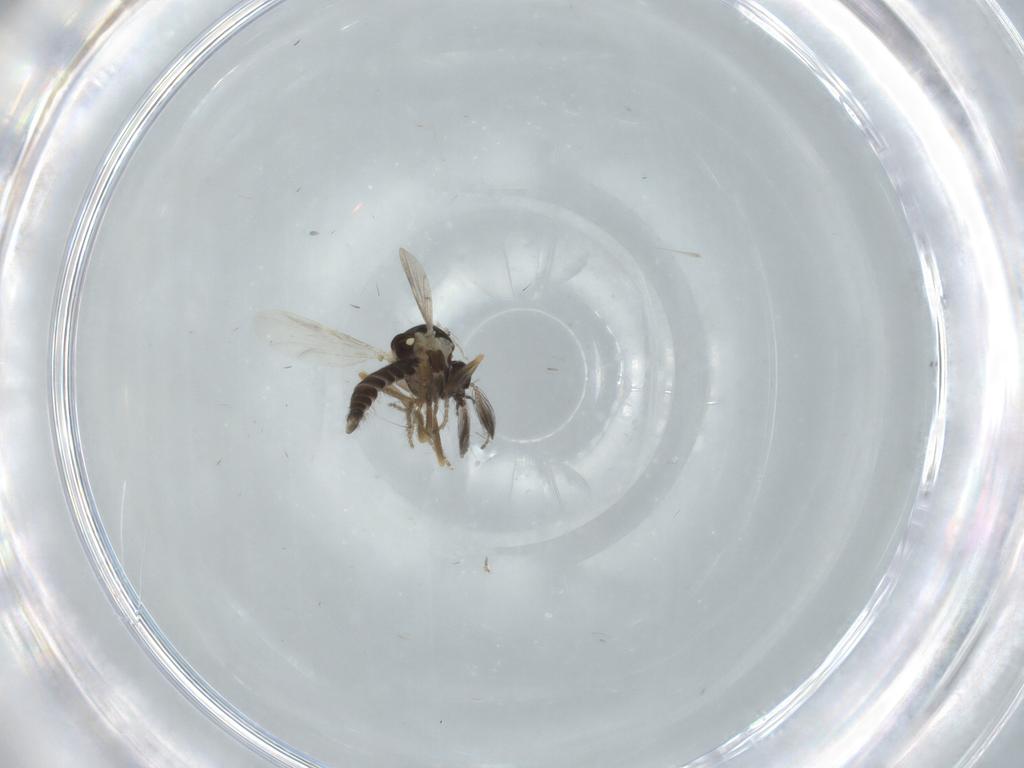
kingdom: Animalia
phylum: Arthropoda
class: Insecta
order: Diptera
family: Ceratopogonidae
